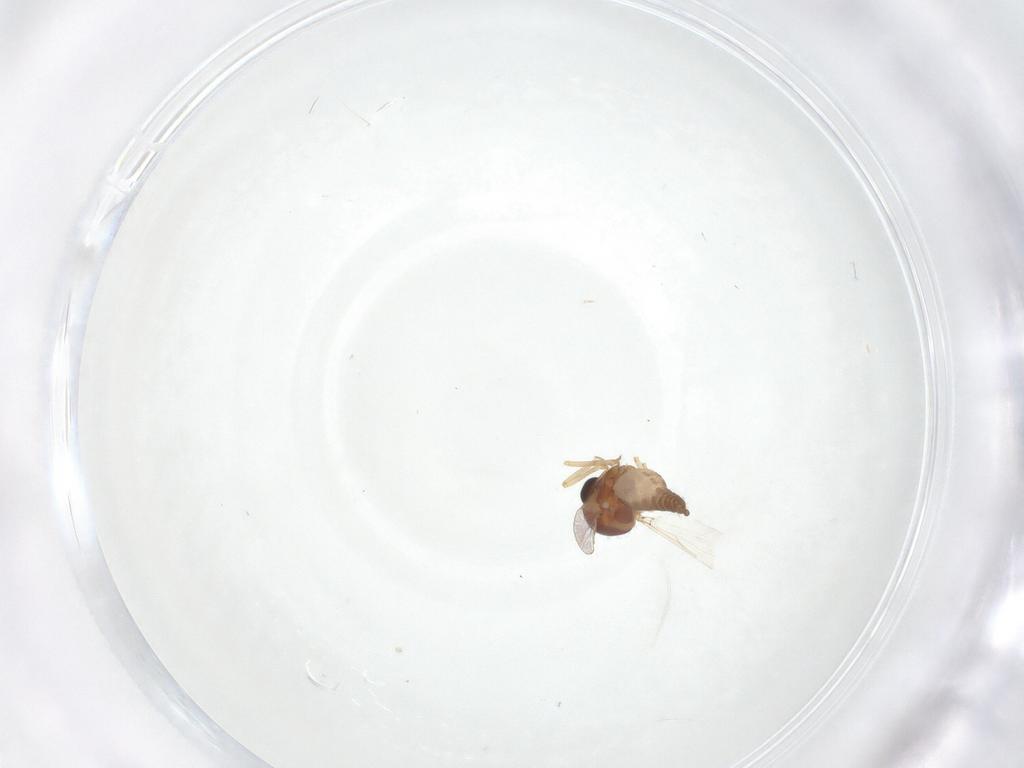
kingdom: Animalia
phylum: Arthropoda
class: Insecta
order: Diptera
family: Ceratopogonidae
